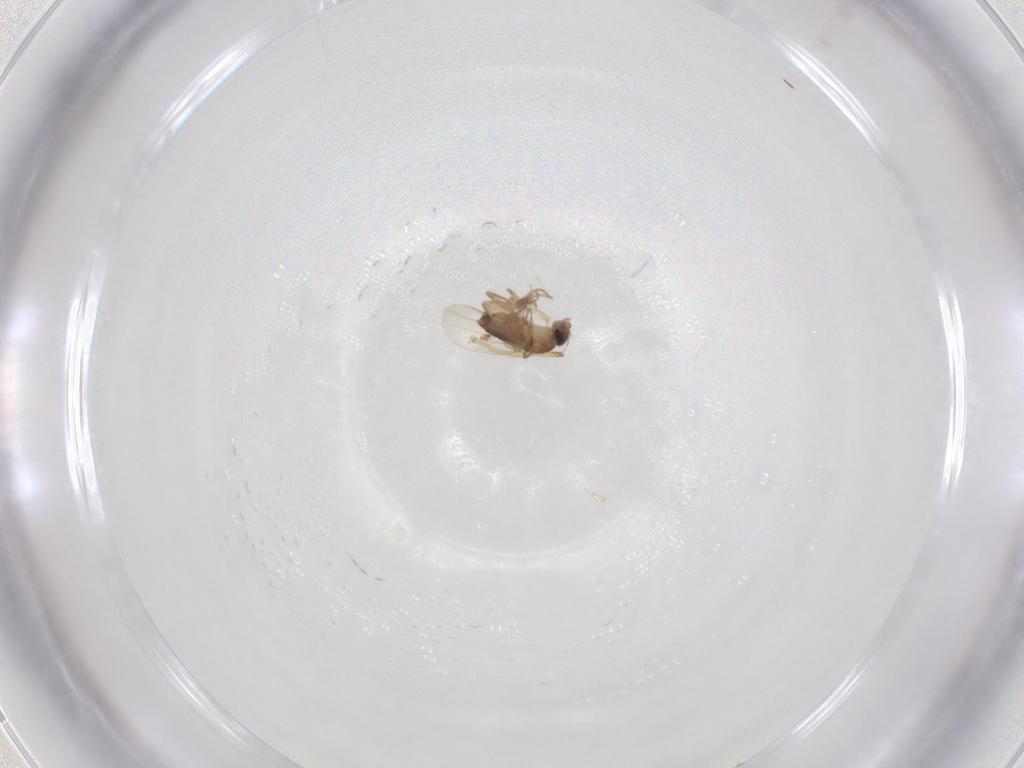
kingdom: Animalia
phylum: Arthropoda
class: Insecta
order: Diptera
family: Phoridae
